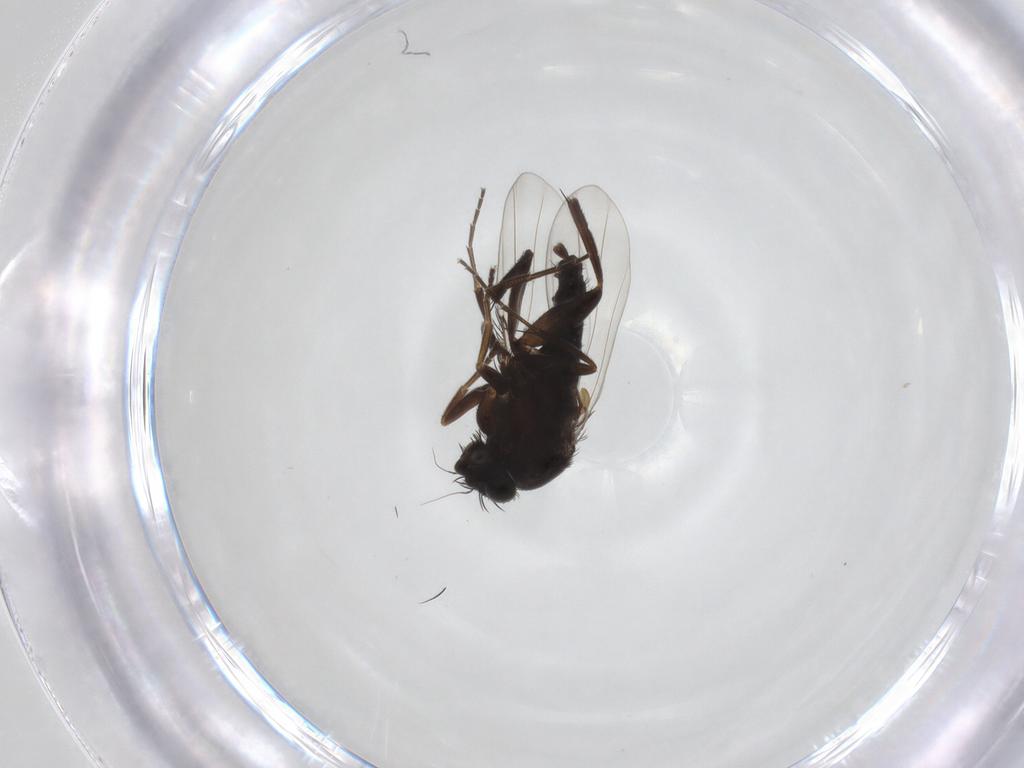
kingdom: Animalia
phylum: Arthropoda
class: Insecta
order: Diptera
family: Phoridae
